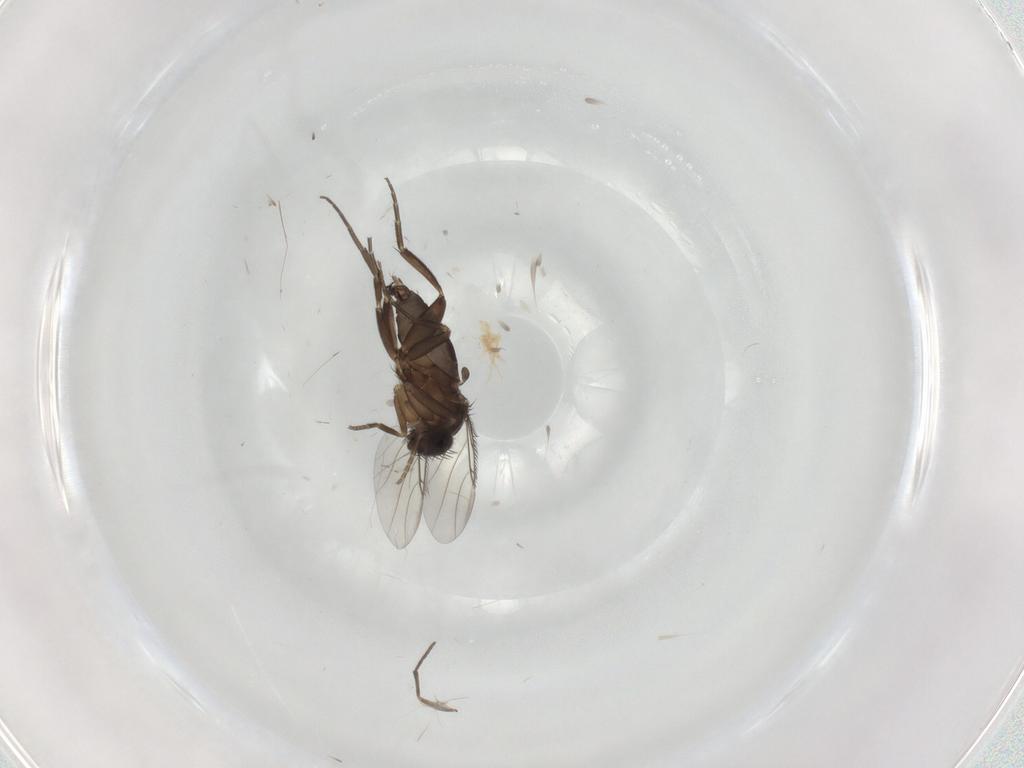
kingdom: Animalia
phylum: Arthropoda
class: Insecta
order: Diptera
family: Phoridae
